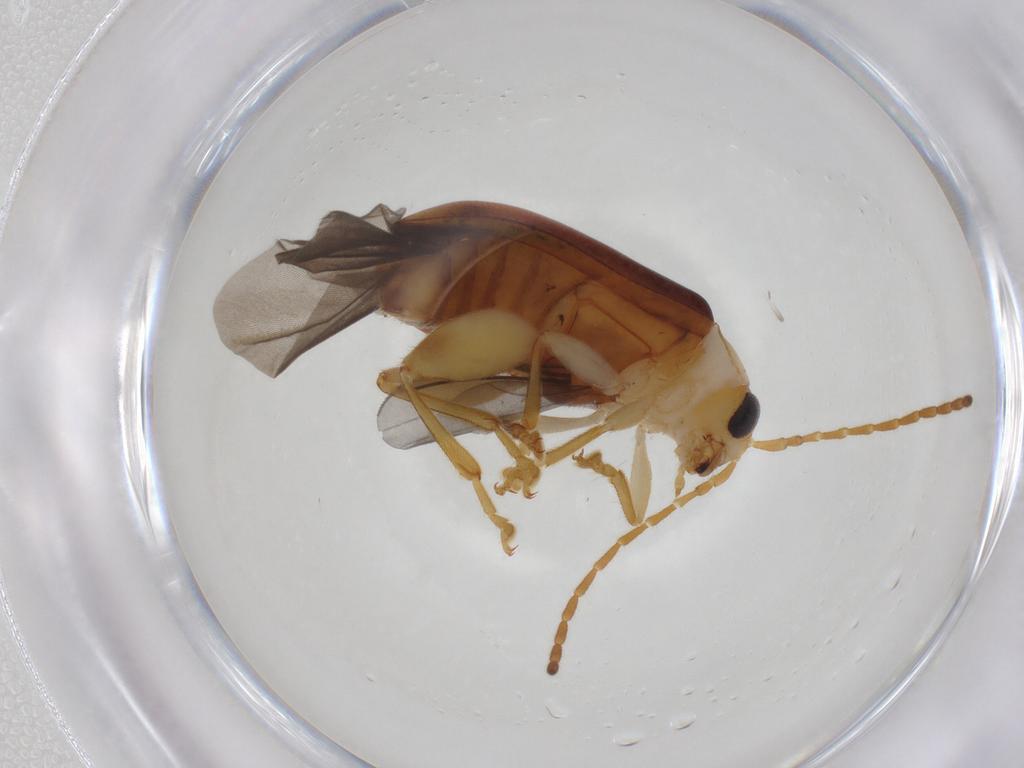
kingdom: Animalia
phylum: Arthropoda
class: Insecta
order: Coleoptera
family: Chrysomelidae
